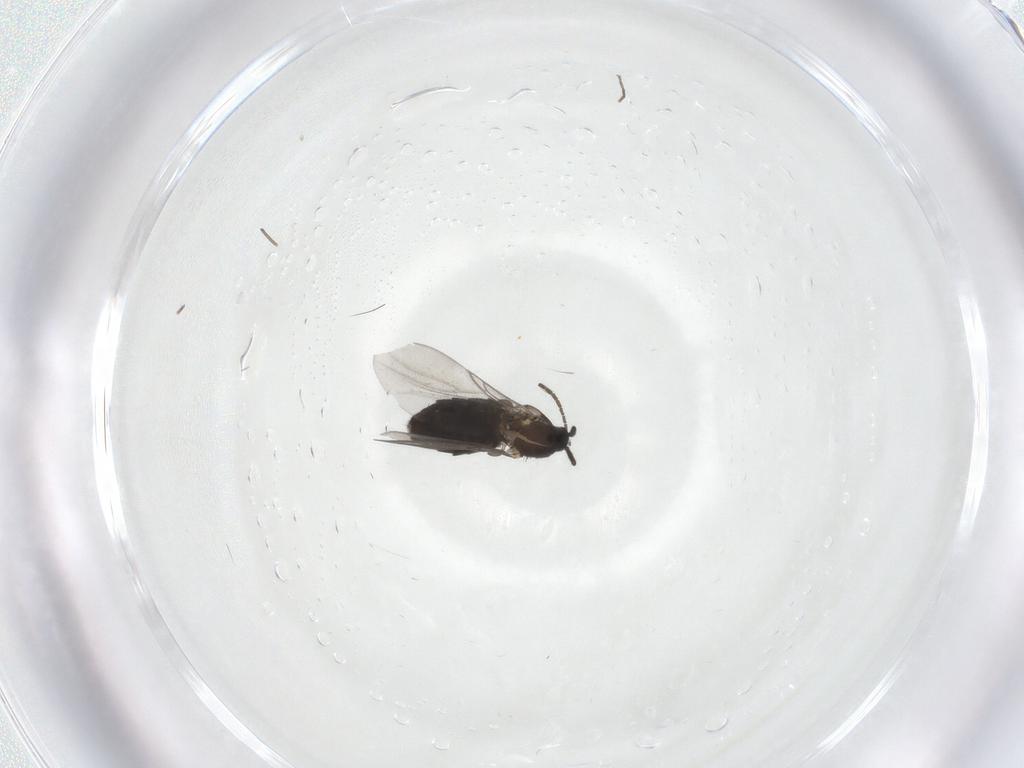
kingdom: Animalia
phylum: Arthropoda
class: Insecta
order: Diptera
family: Scatopsidae
